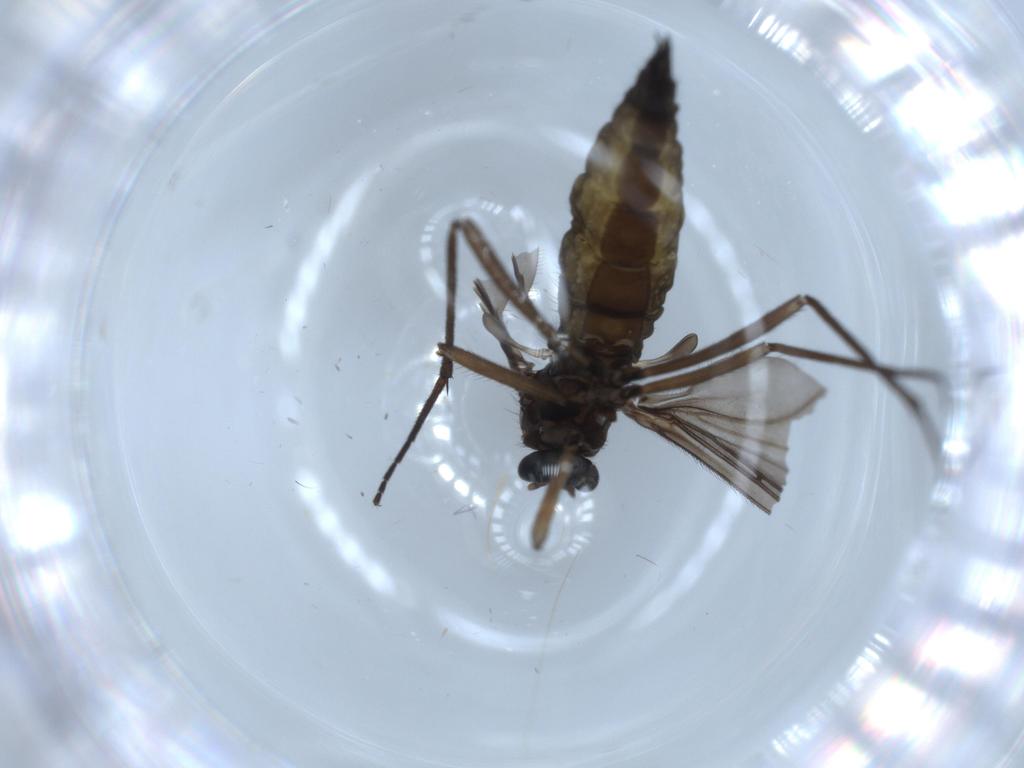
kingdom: Animalia
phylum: Arthropoda
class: Insecta
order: Diptera
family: Sciaridae
